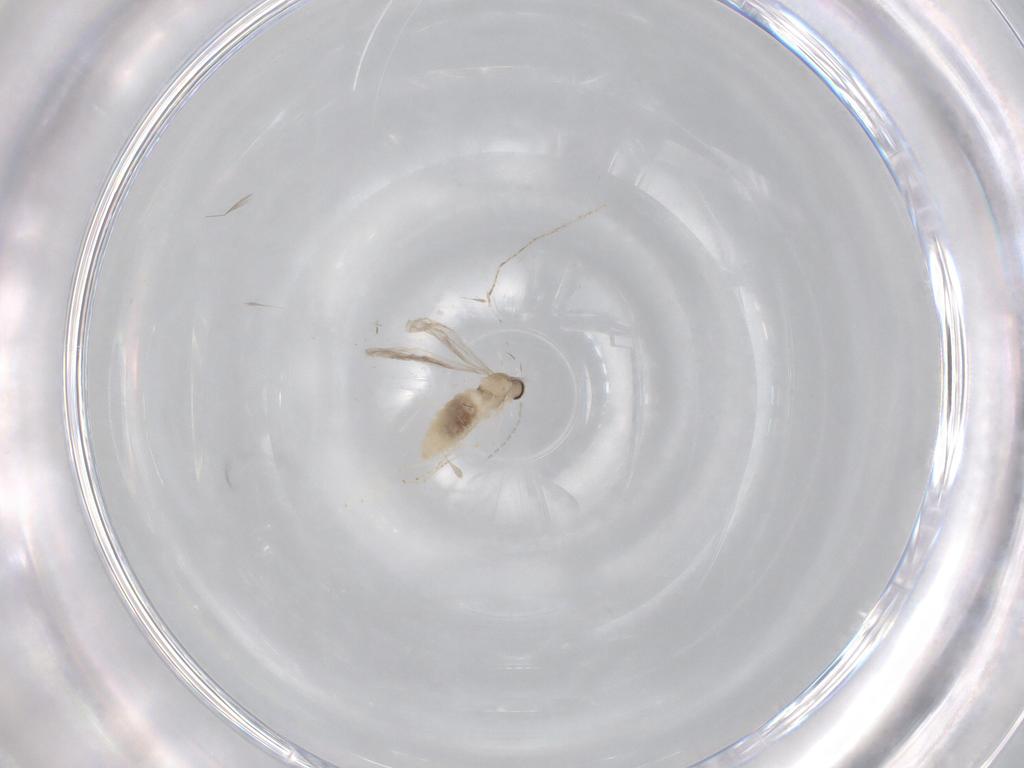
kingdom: Animalia
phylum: Arthropoda
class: Insecta
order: Diptera
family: Cecidomyiidae
